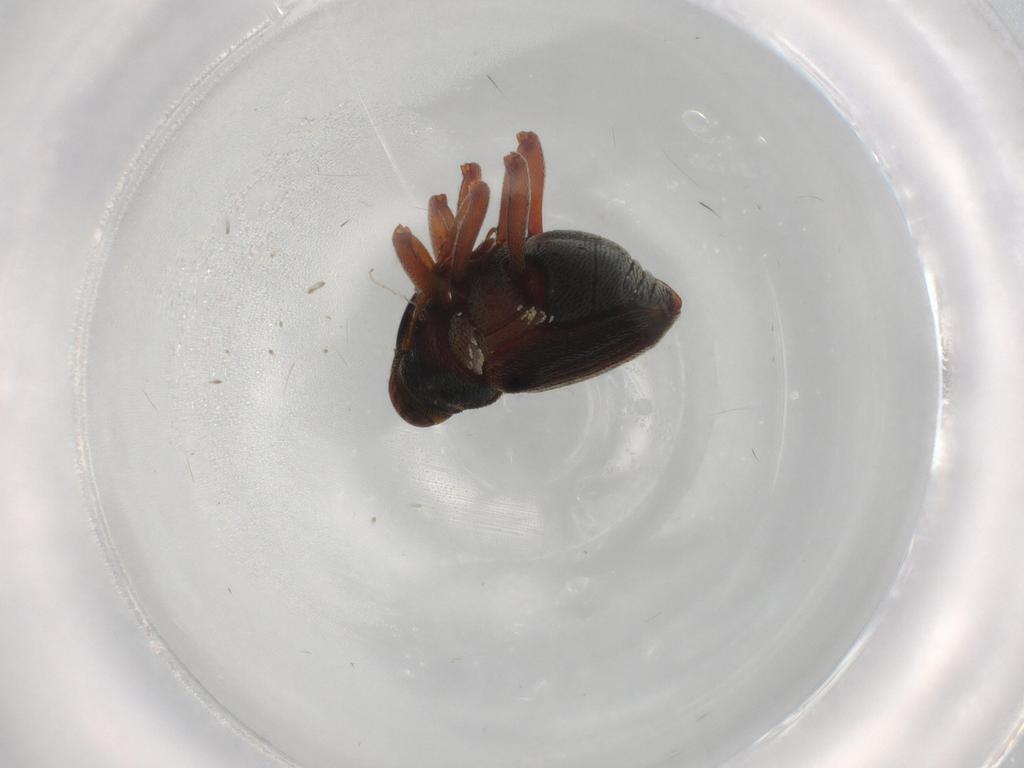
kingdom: Animalia
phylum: Arthropoda
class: Insecta
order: Coleoptera
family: Curculionidae
